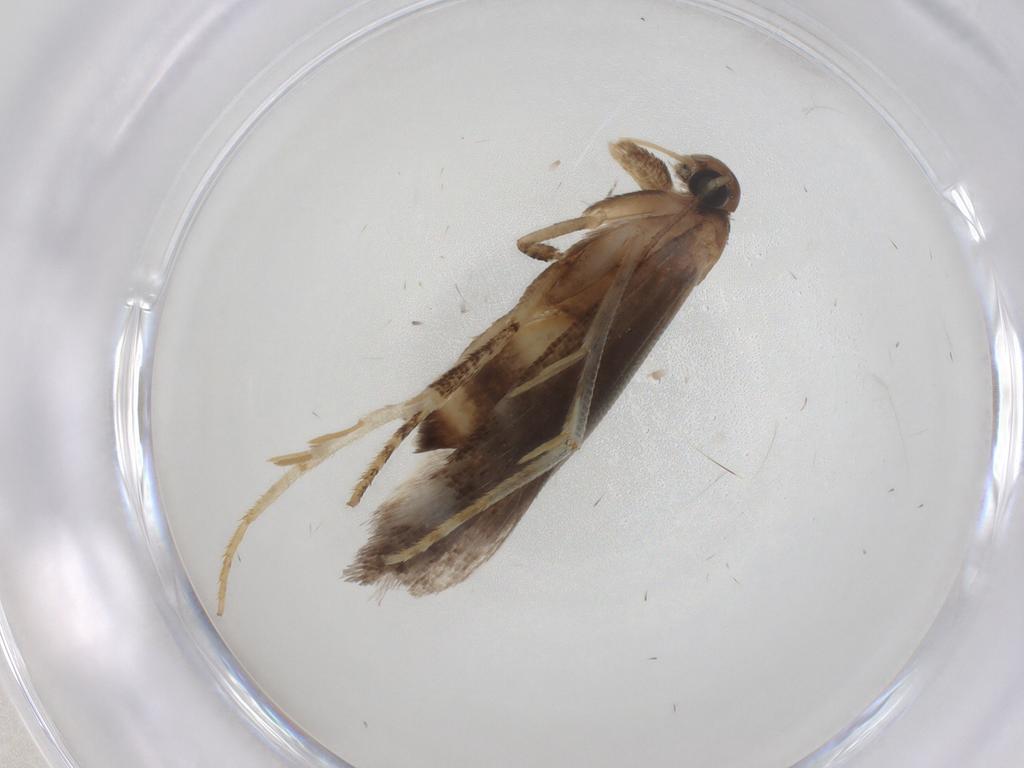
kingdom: Animalia
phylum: Arthropoda
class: Insecta
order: Lepidoptera
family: Gelechiidae
